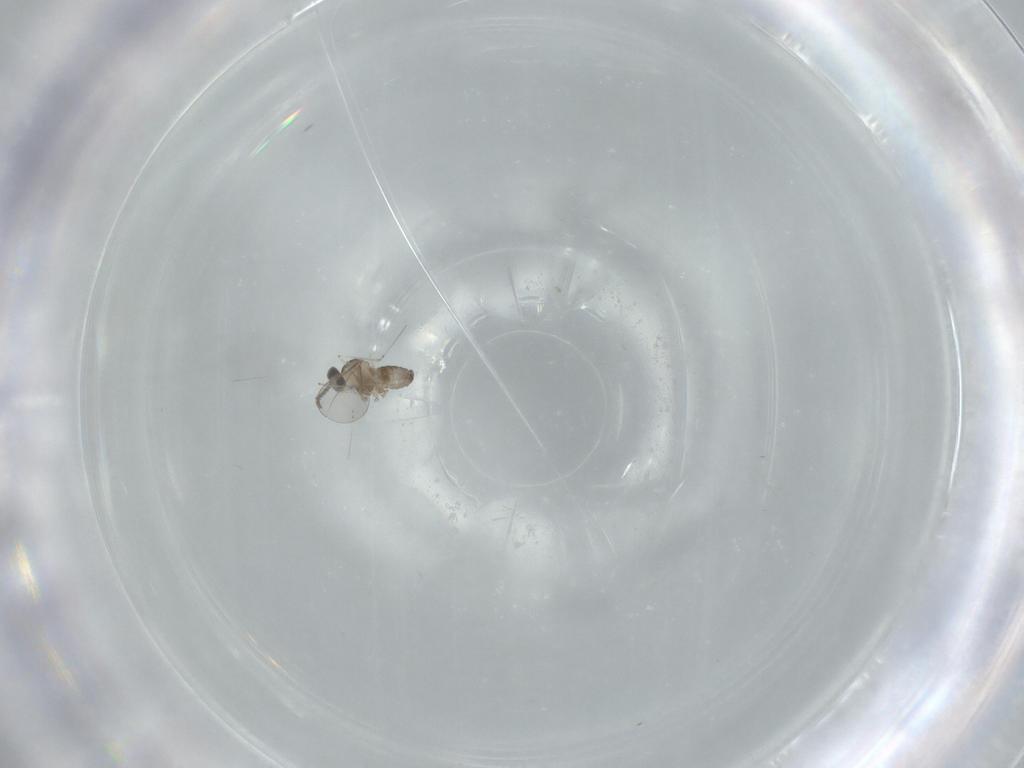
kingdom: Animalia
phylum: Arthropoda
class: Insecta
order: Diptera
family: Cecidomyiidae
